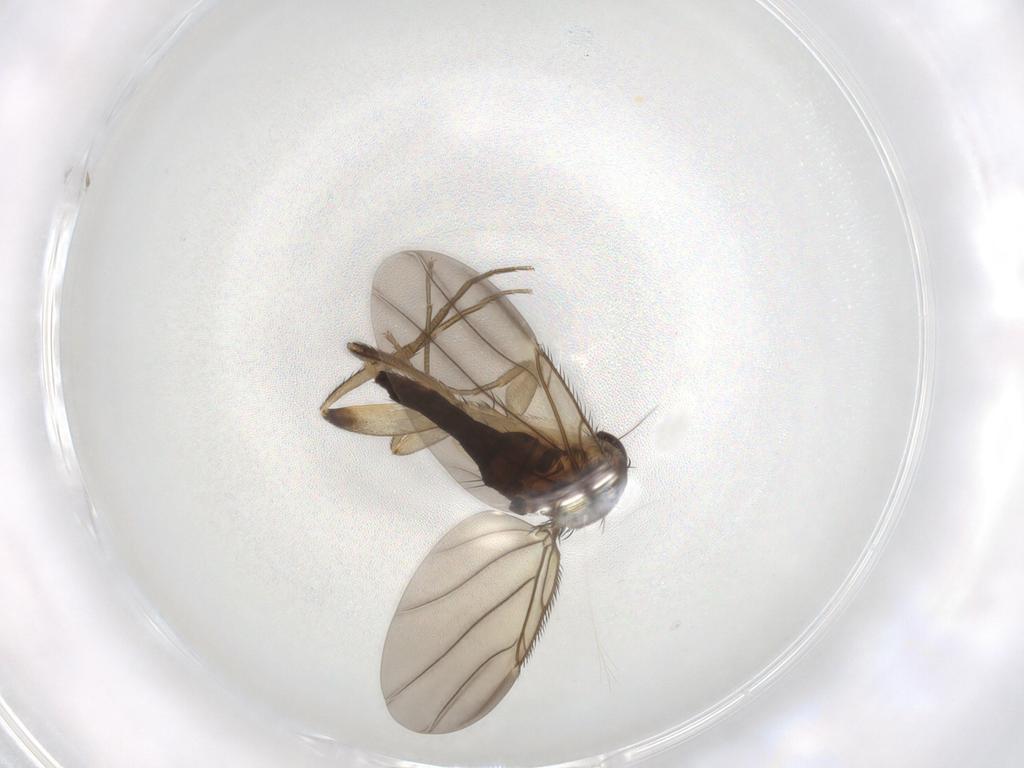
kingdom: Animalia
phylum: Arthropoda
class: Insecta
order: Diptera
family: Phoridae
